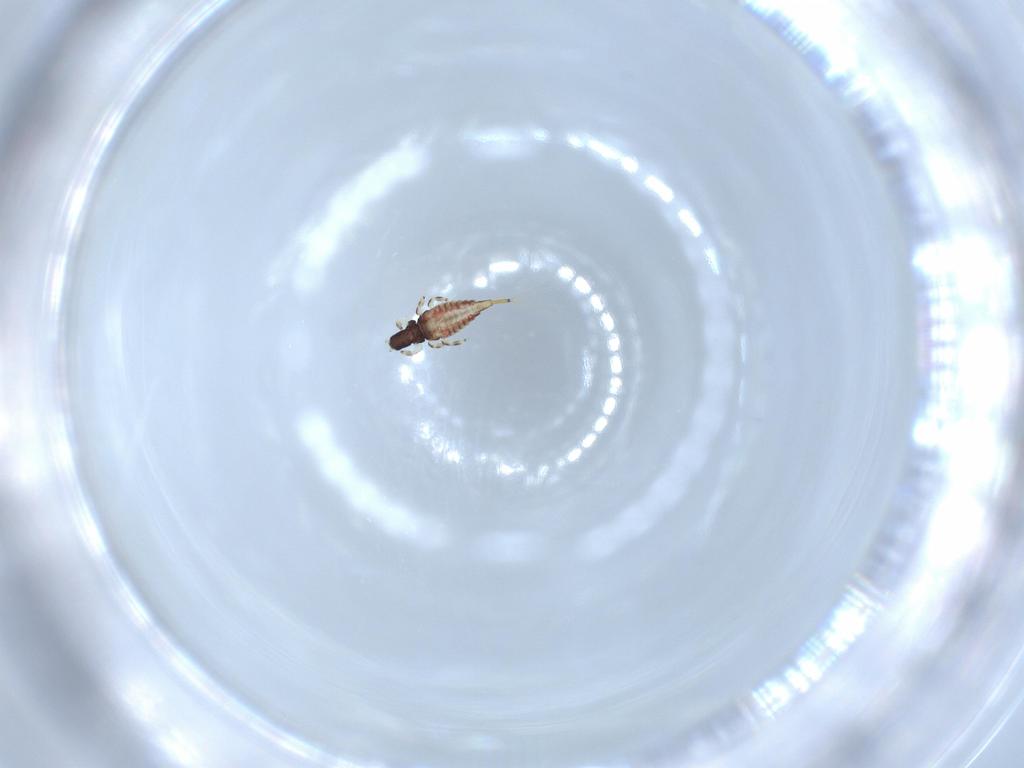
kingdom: Animalia
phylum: Arthropoda
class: Insecta
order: Thysanoptera
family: Phlaeothripidae
